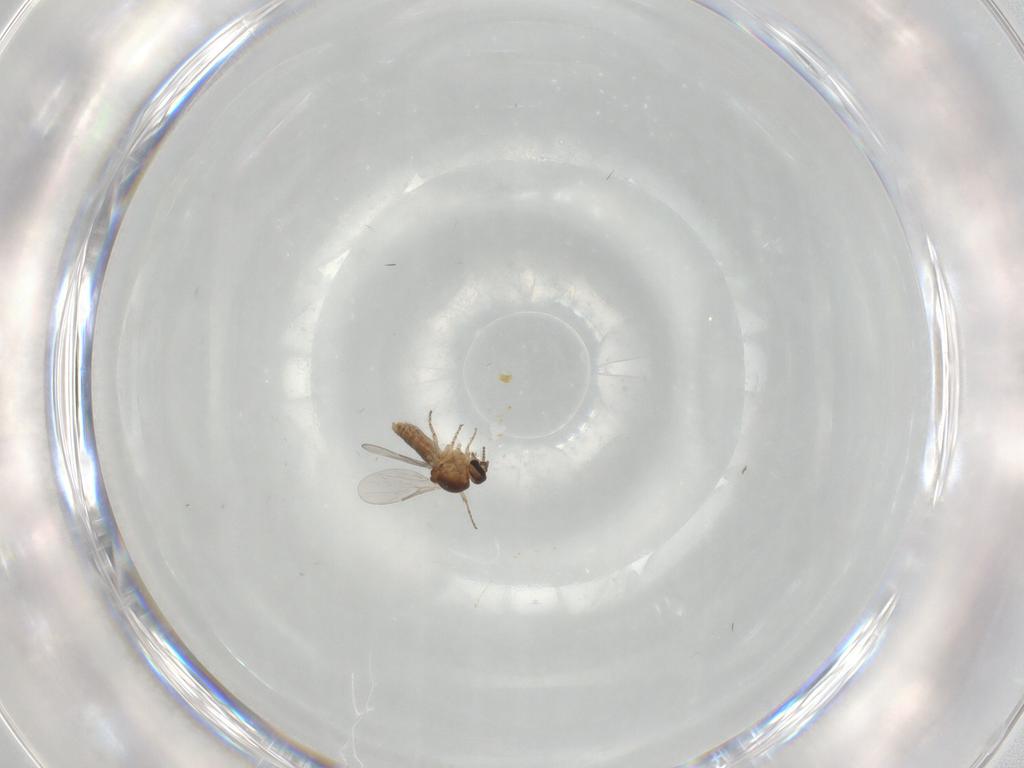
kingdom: Animalia
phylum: Arthropoda
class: Insecta
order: Diptera
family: Ceratopogonidae
